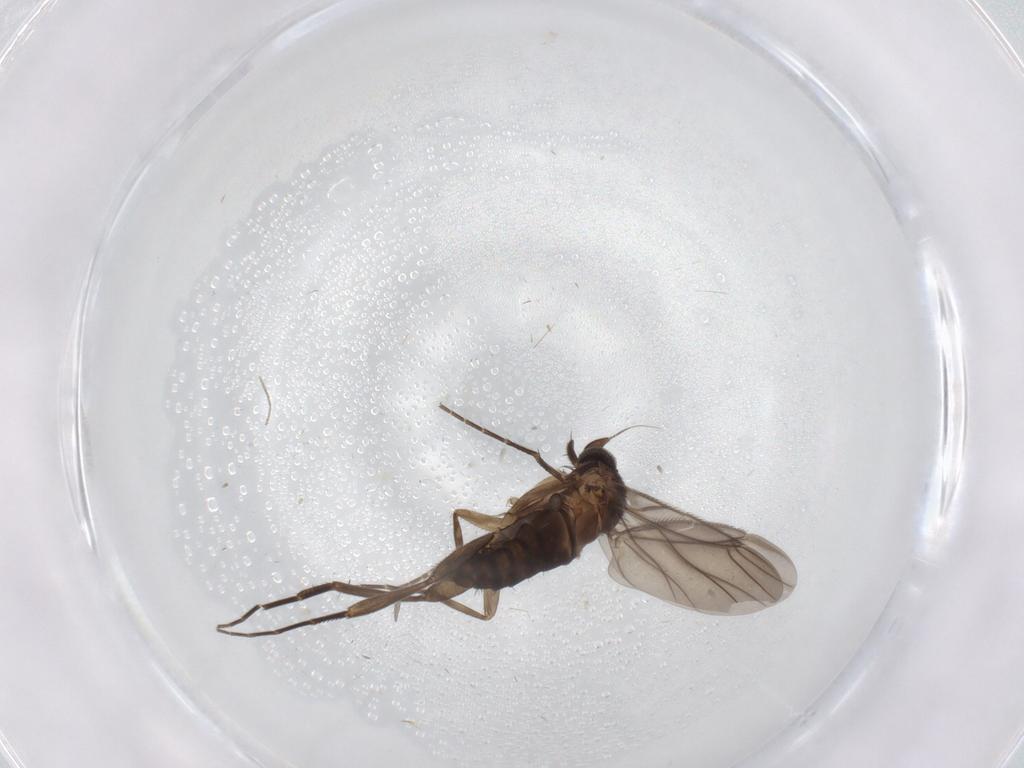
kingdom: Animalia
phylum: Arthropoda
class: Insecta
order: Diptera
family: Phoridae
